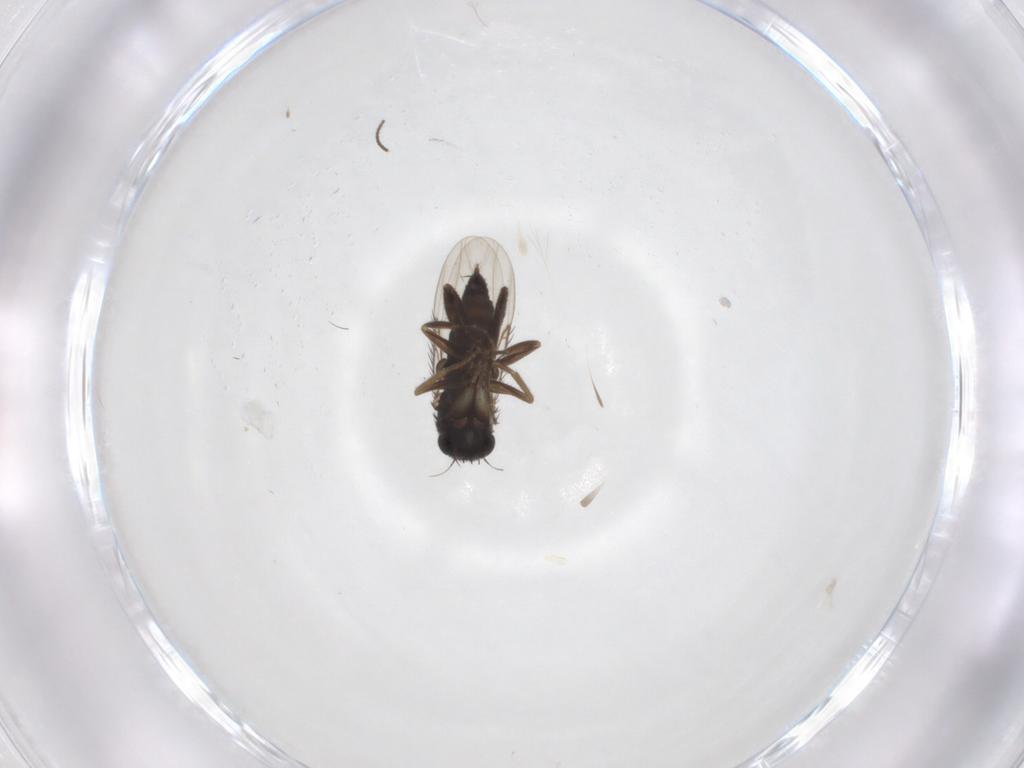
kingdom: Animalia
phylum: Arthropoda
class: Insecta
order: Diptera
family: Phoridae
